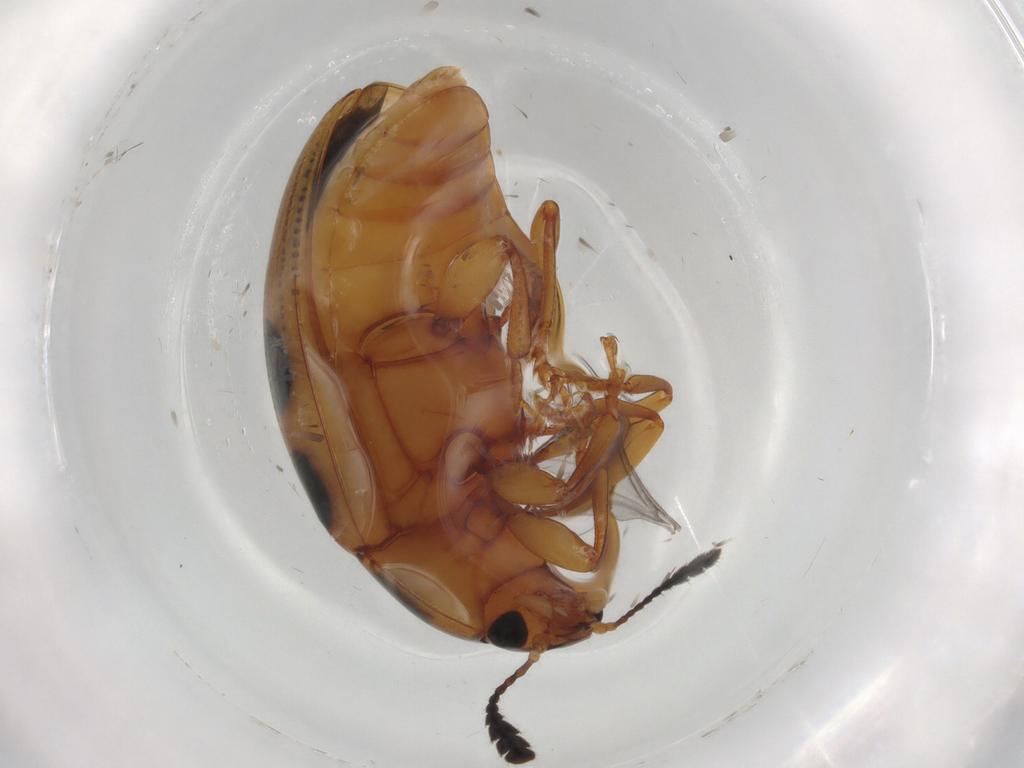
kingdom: Animalia
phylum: Arthropoda
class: Insecta
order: Coleoptera
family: Erotylidae
